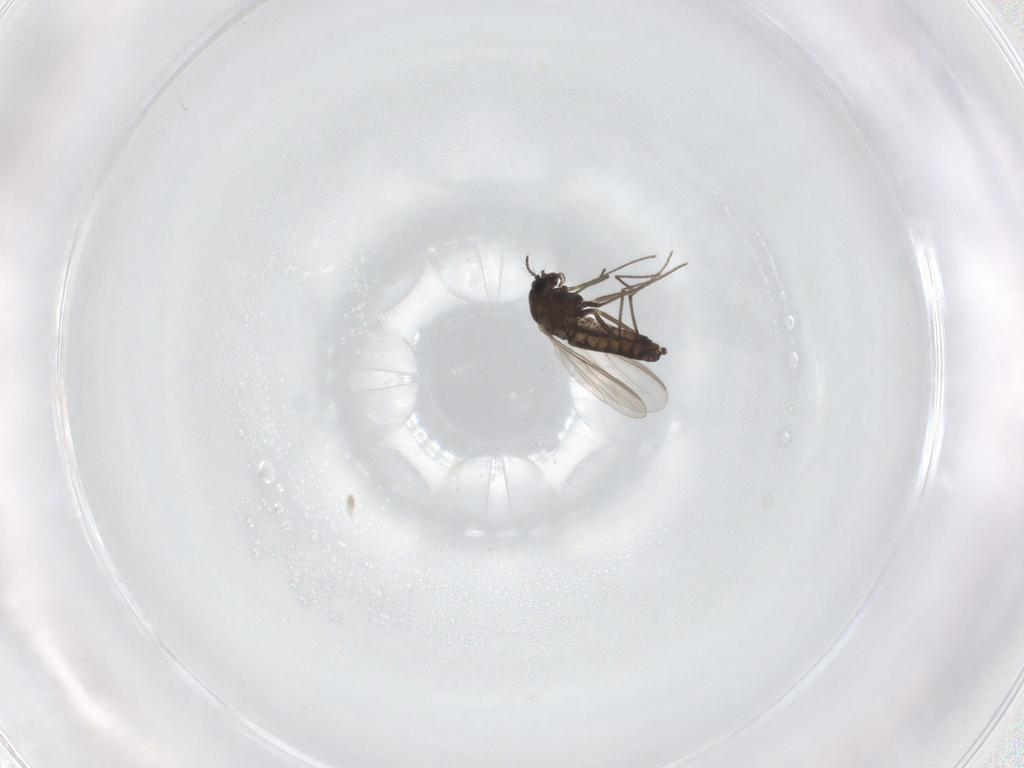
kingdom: Animalia
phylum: Arthropoda
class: Insecta
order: Diptera
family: Chironomidae
